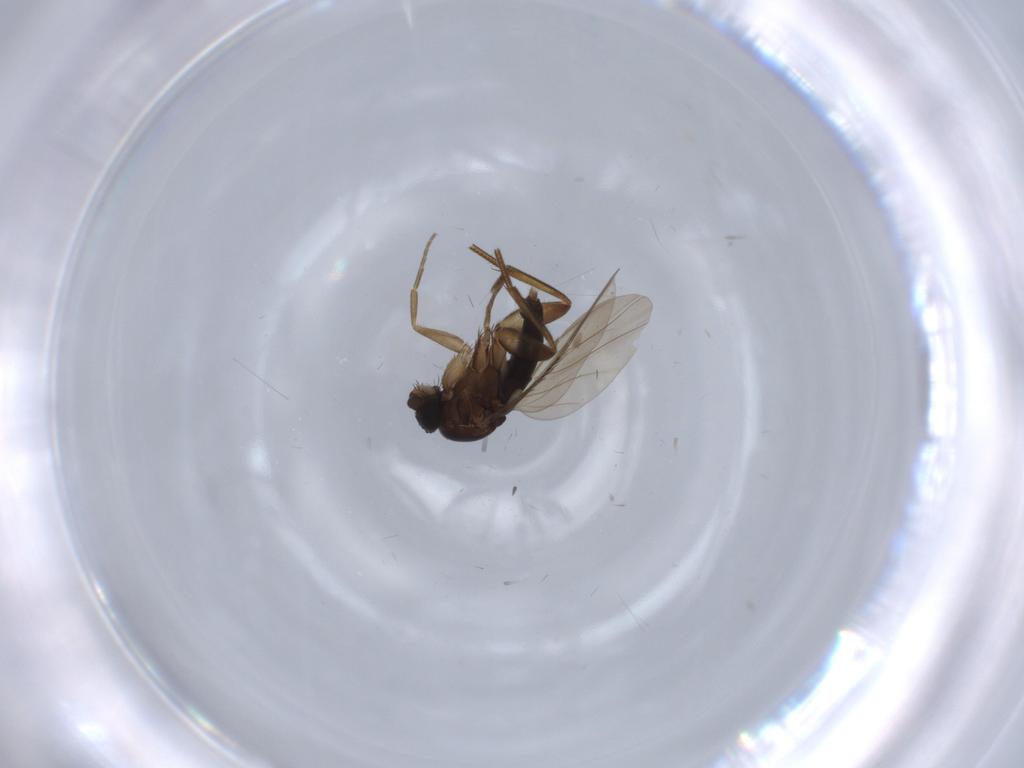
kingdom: Animalia
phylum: Arthropoda
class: Insecta
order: Diptera
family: Phoridae
